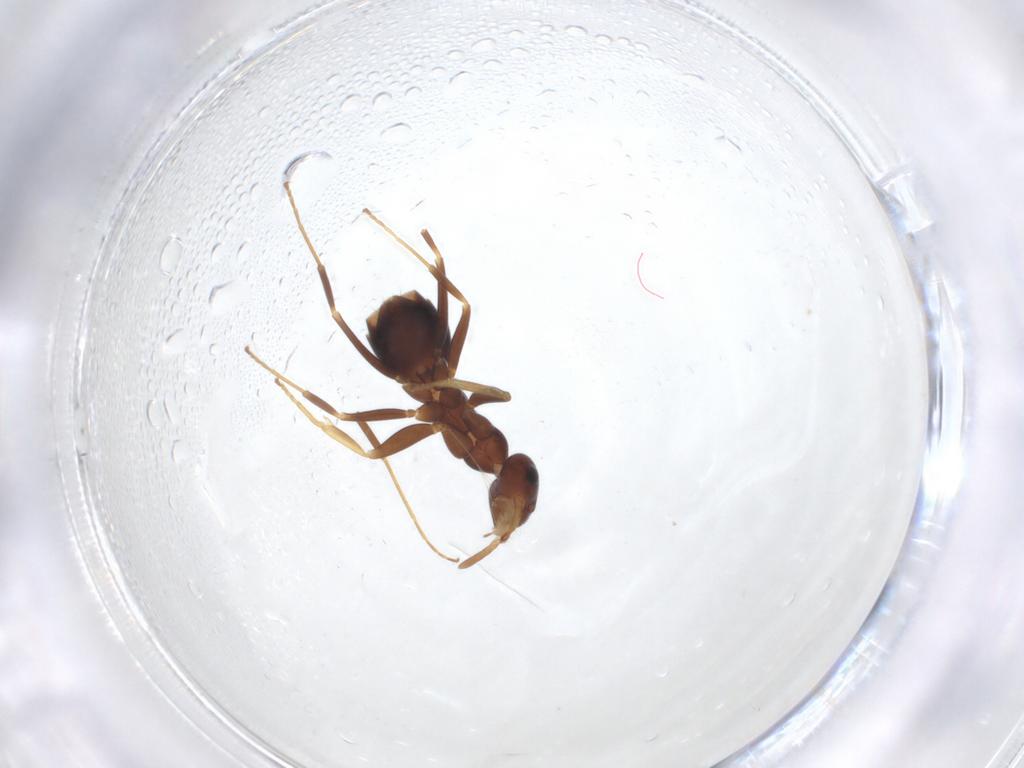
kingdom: Animalia
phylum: Arthropoda
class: Insecta
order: Hymenoptera
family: Formicidae
